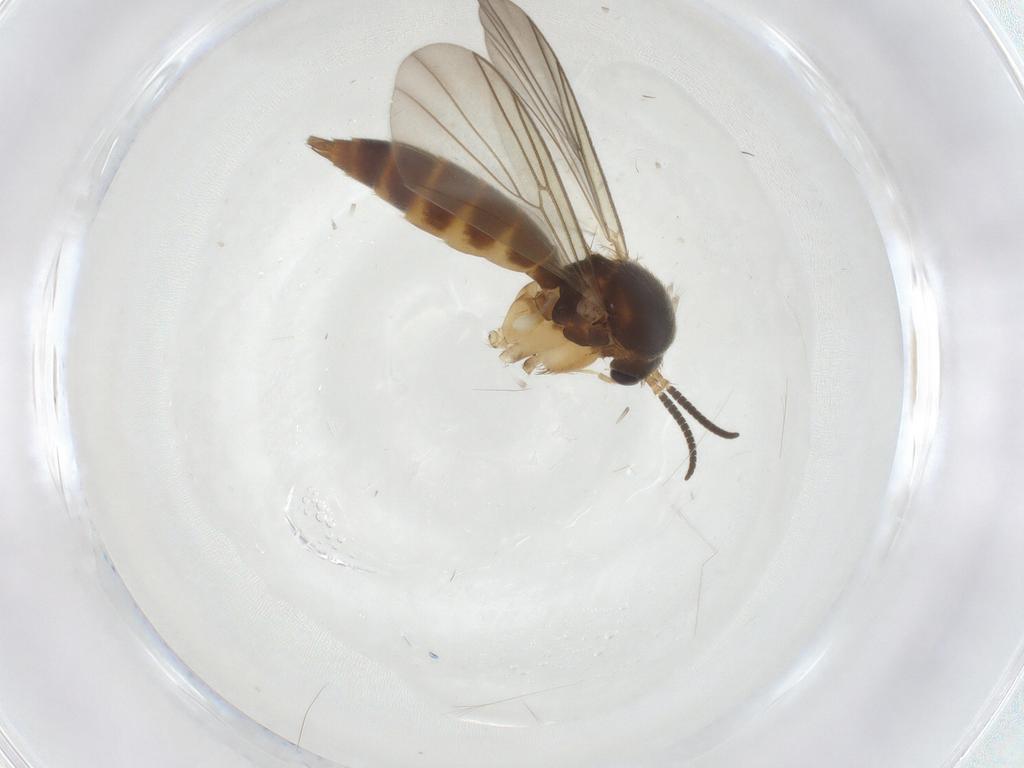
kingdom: Animalia
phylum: Arthropoda
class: Insecta
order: Diptera
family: Mycetophilidae
